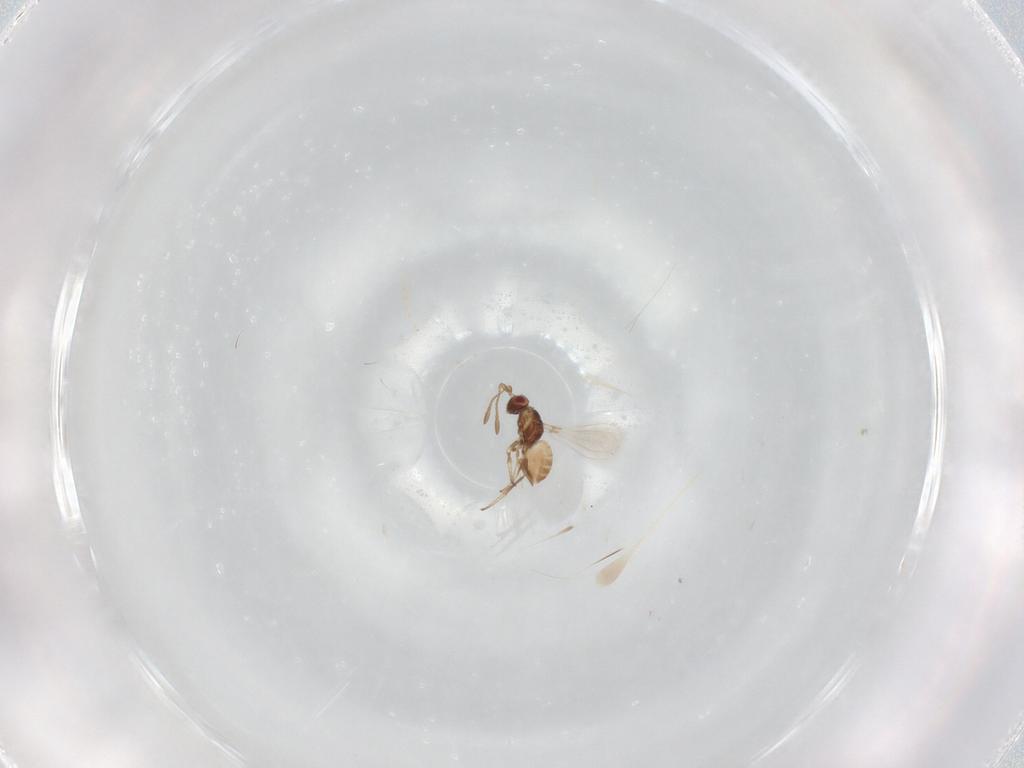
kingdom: Animalia
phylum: Arthropoda
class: Insecta
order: Hymenoptera
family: Mymaridae
